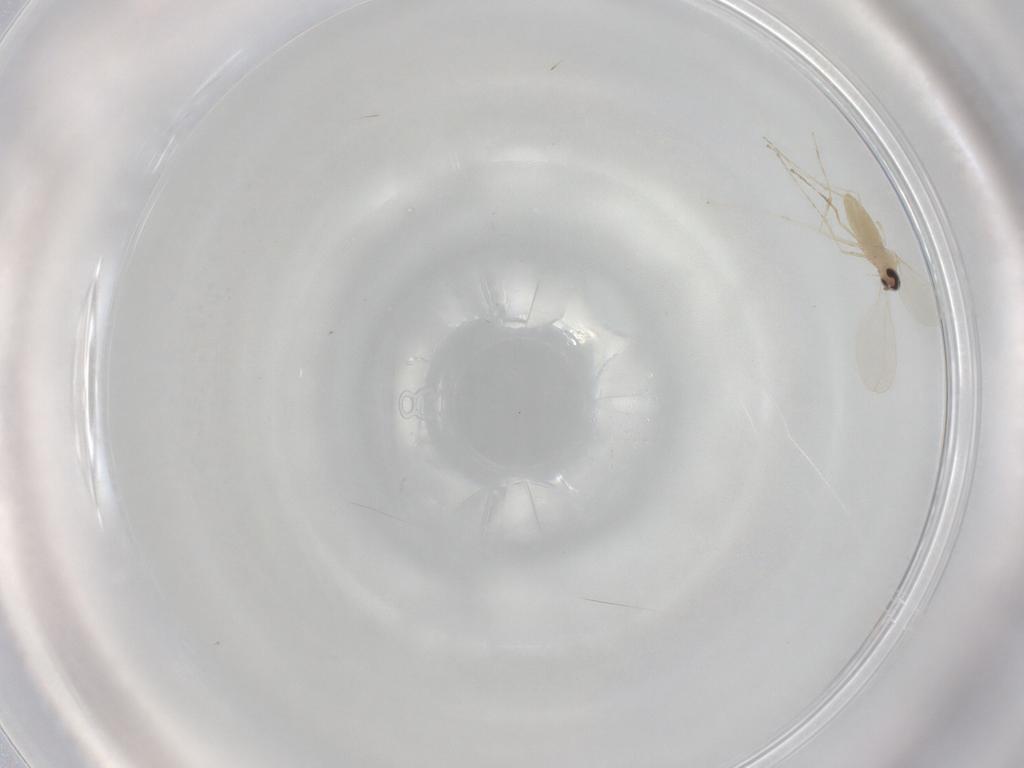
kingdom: Animalia
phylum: Arthropoda
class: Insecta
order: Diptera
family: Cecidomyiidae
